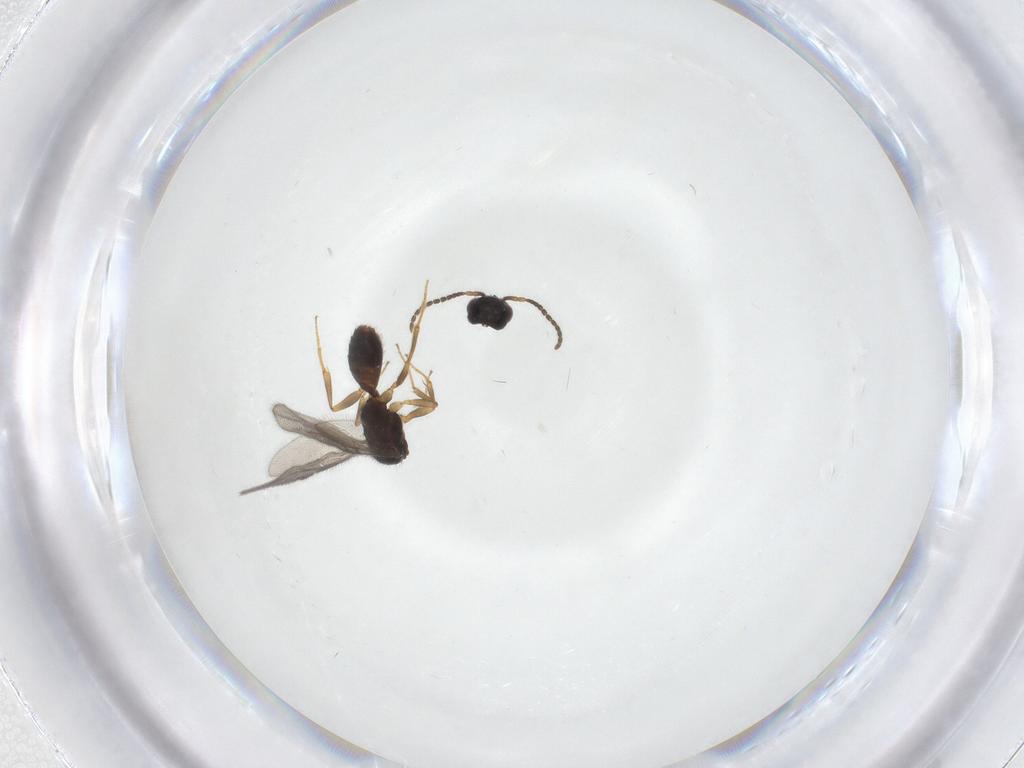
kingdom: Animalia
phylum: Arthropoda
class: Insecta
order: Hymenoptera
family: Bethylidae
